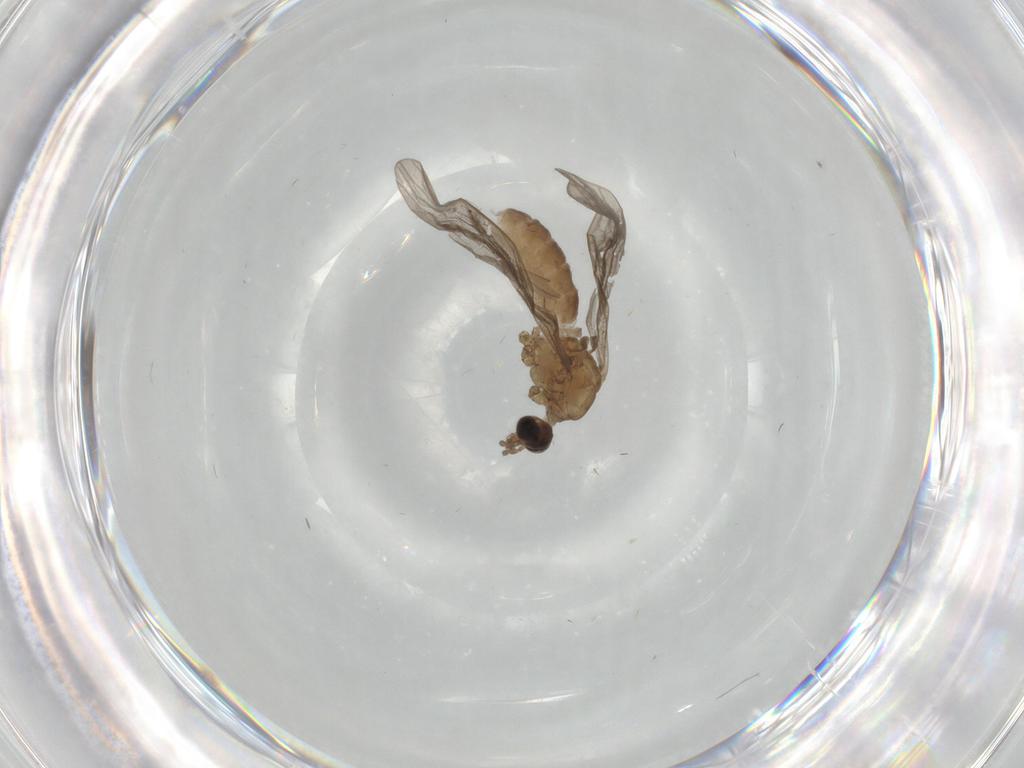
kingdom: Animalia
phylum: Arthropoda
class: Insecta
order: Diptera
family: Limoniidae
